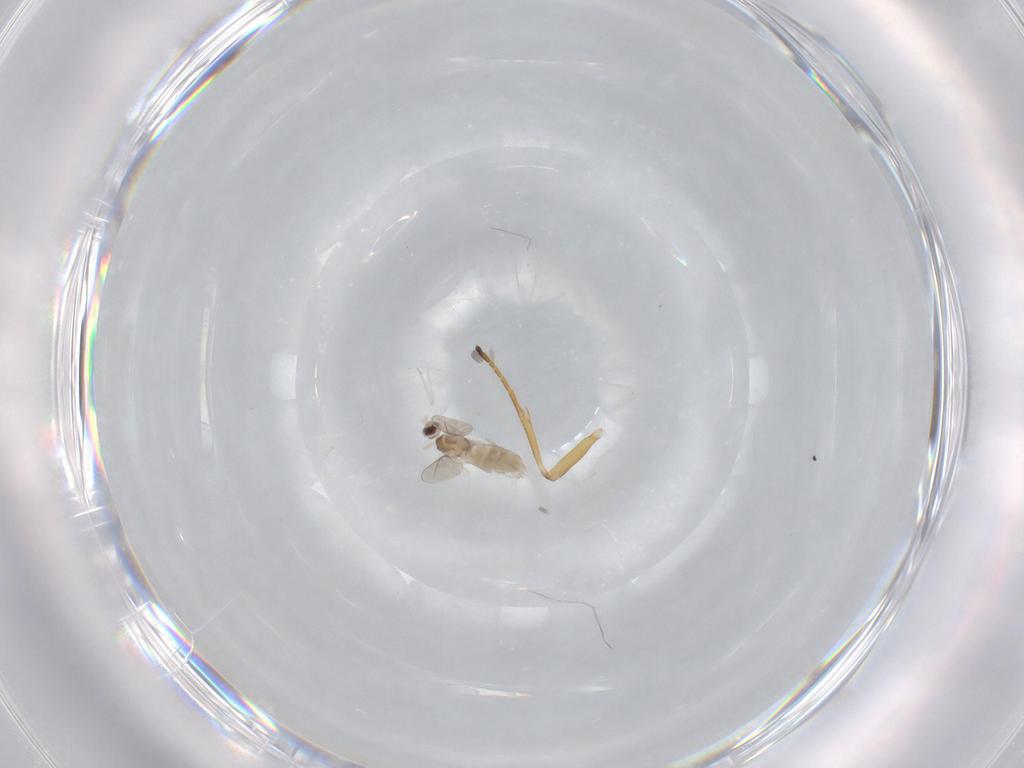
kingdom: Animalia
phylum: Arthropoda
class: Insecta
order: Diptera
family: Cecidomyiidae
